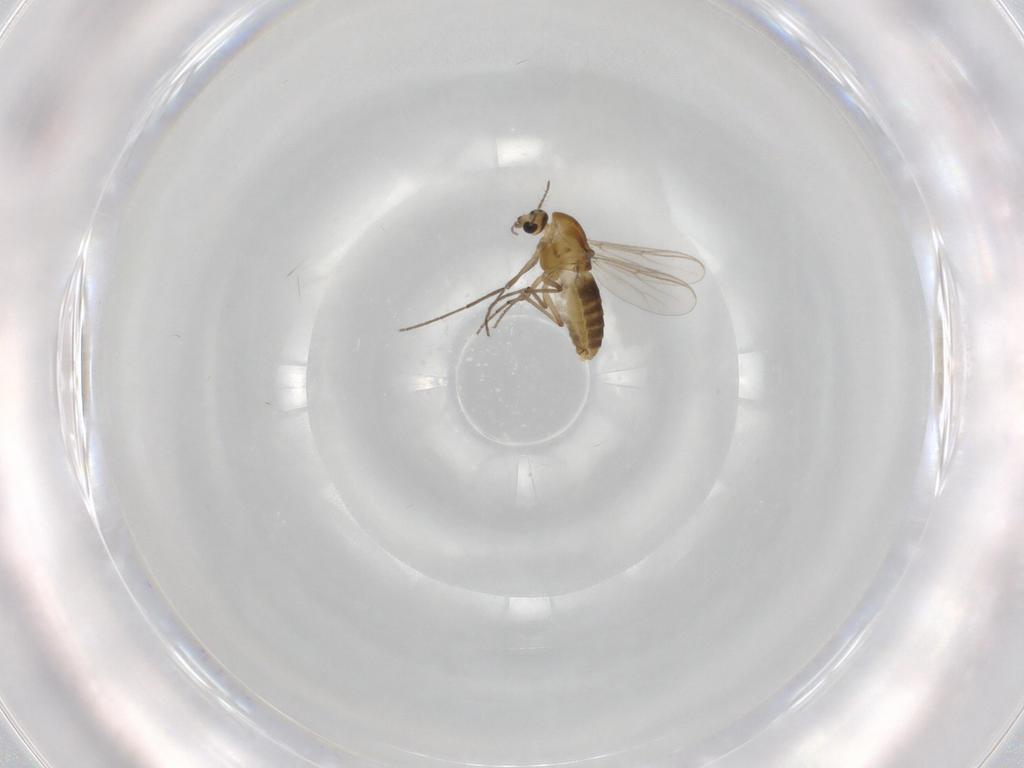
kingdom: Animalia
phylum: Arthropoda
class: Insecta
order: Diptera
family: Chironomidae
